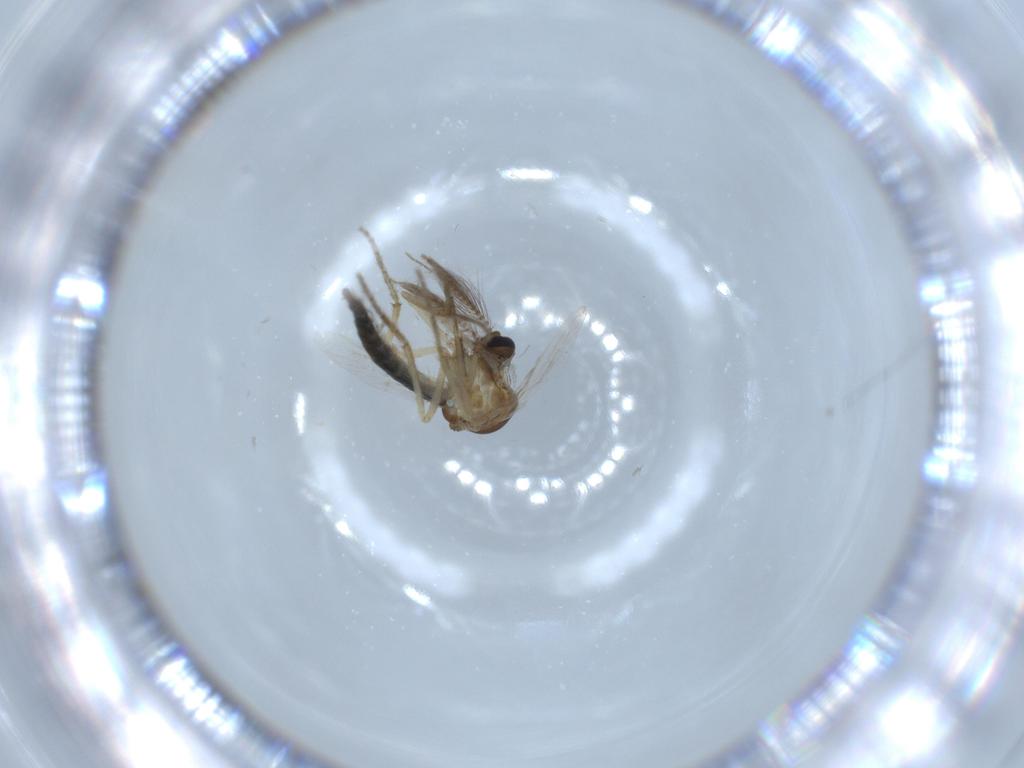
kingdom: Animalia
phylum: Arthropoda
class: Insecta
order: Diptera
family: Ceratopogonidae
